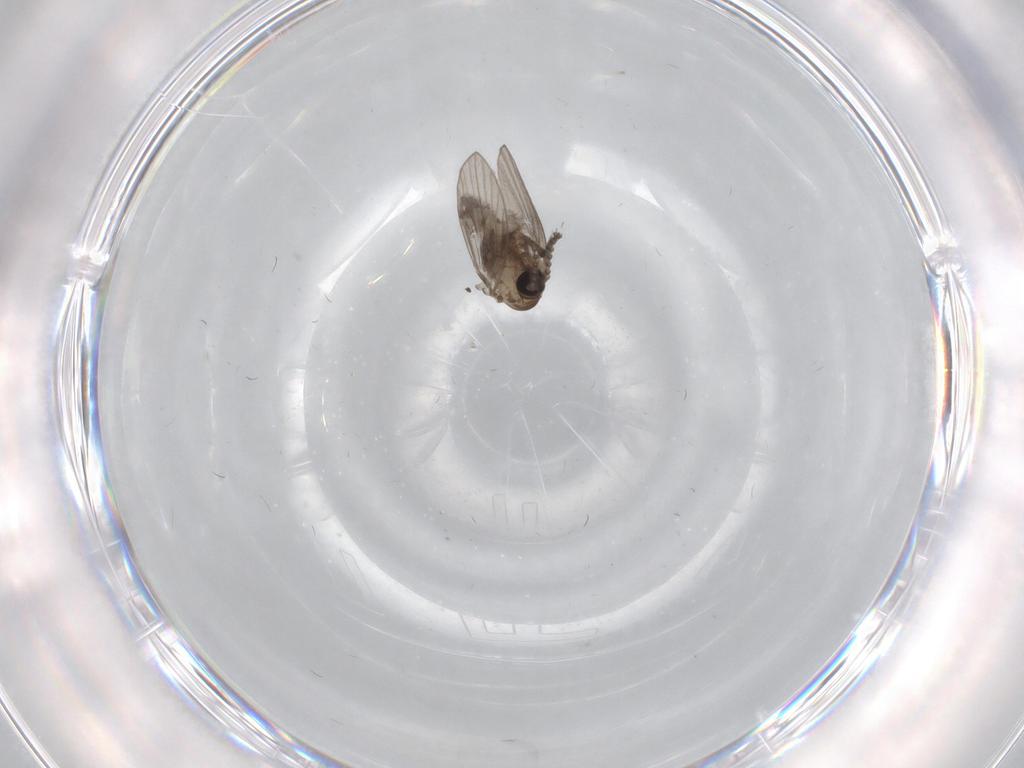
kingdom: Animalia
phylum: Arthropoda
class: Insecta
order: Diptera
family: Psychodidae
